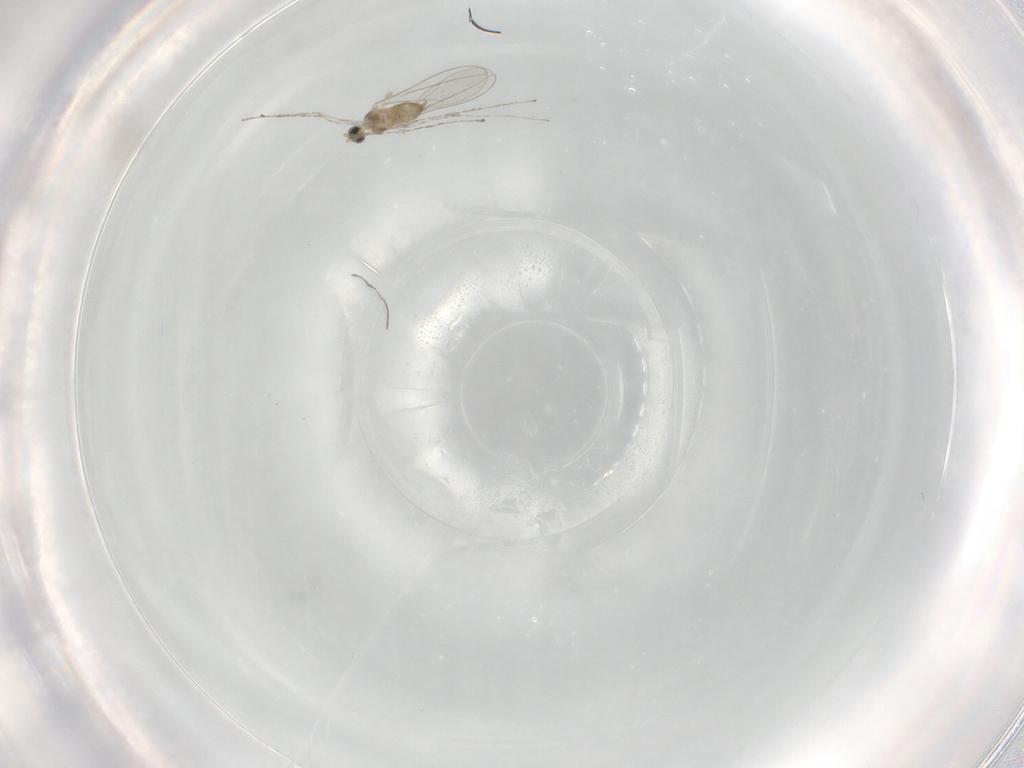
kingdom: Animalia
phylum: Arthropoda
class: Insecta
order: Diptera
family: Cecidomyiidae
